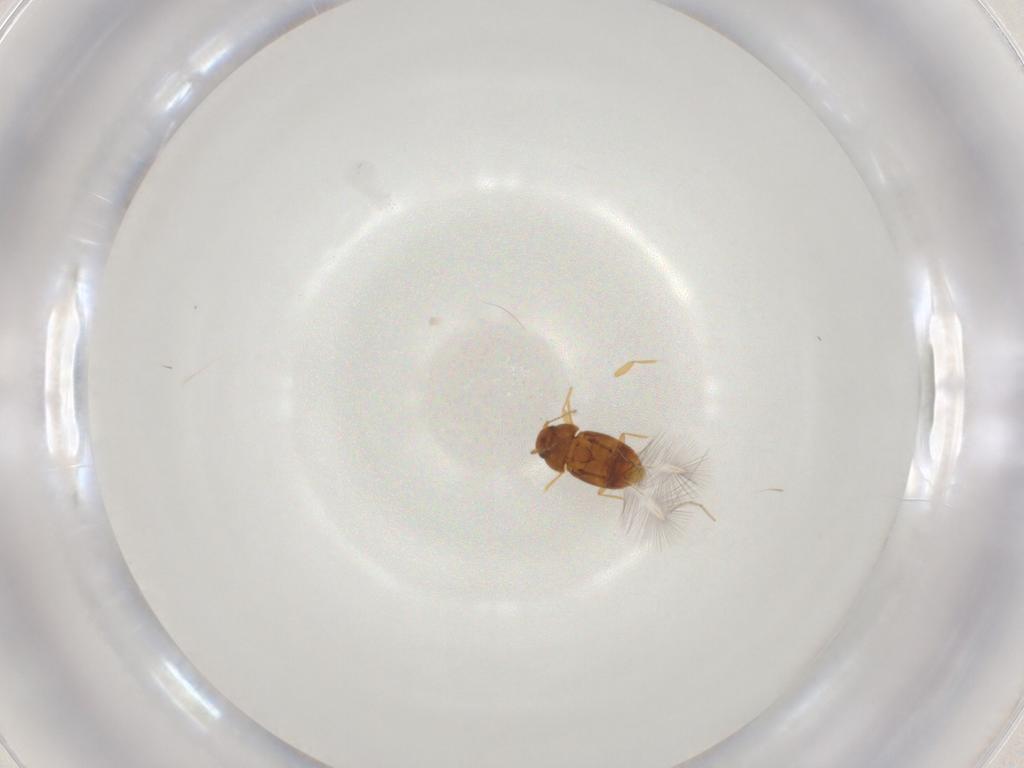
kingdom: Animalia
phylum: Arthropoda
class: Insecta
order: Coleoptera
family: Ptiliidae
